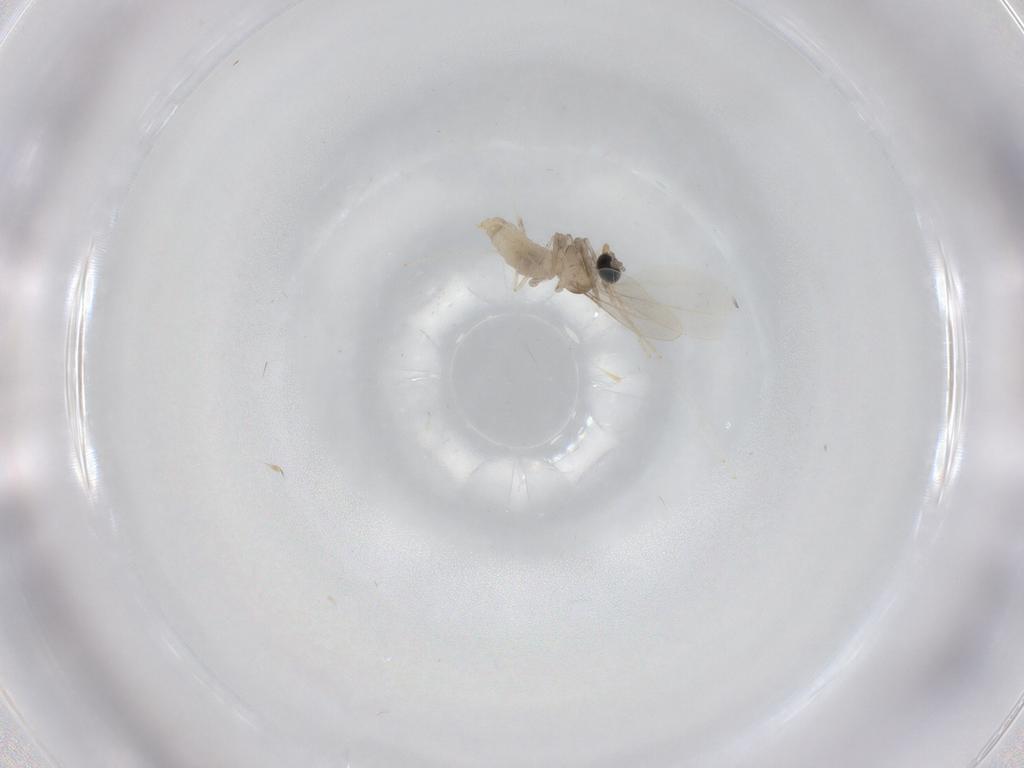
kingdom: Animalia
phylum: Arthropoda
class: Insecta
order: Diptera
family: Cecidomyiidae
